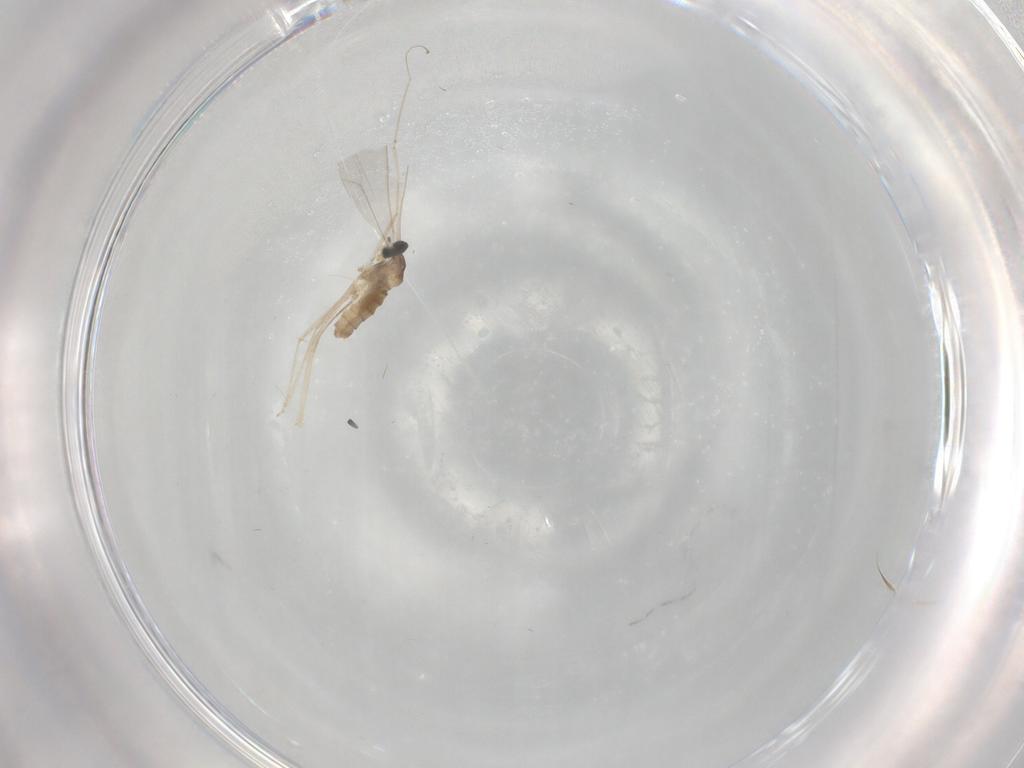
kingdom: Animalia
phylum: Arthropoda
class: Insecta
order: Diptera
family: Cecidomyiidae
